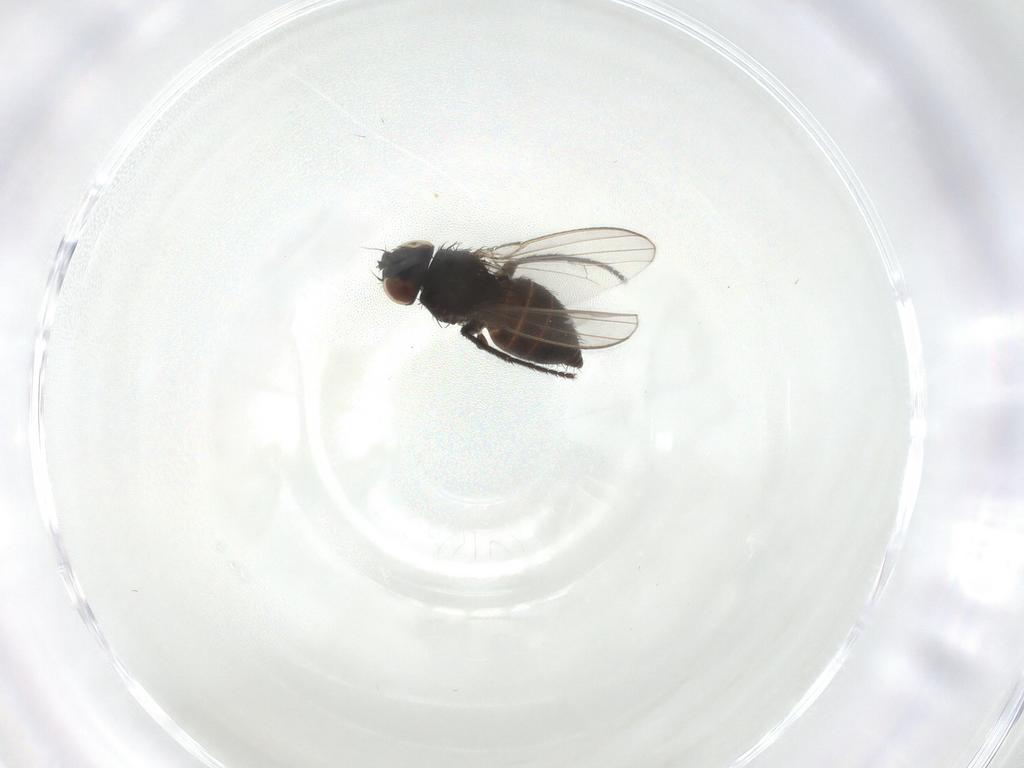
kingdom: Animalia
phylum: Arthropoda
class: Insecta
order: Diptera
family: Milichiidae
